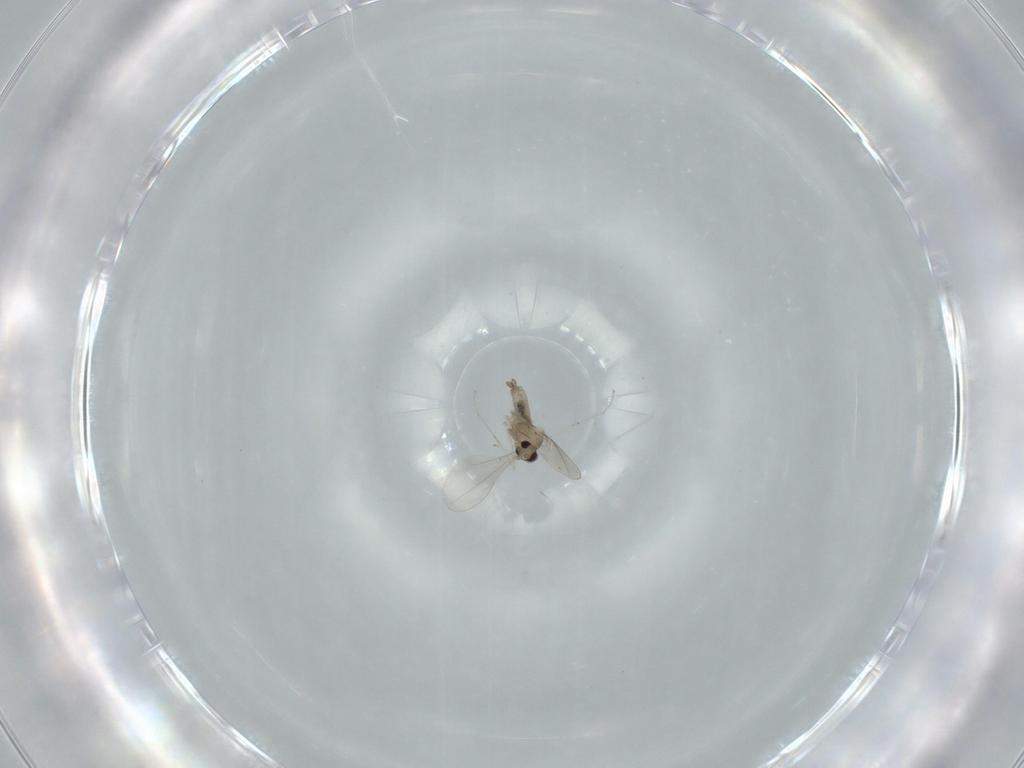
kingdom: Animalia
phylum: Arthropoda
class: Insecta
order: Diptera
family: Cecidomyiidae
